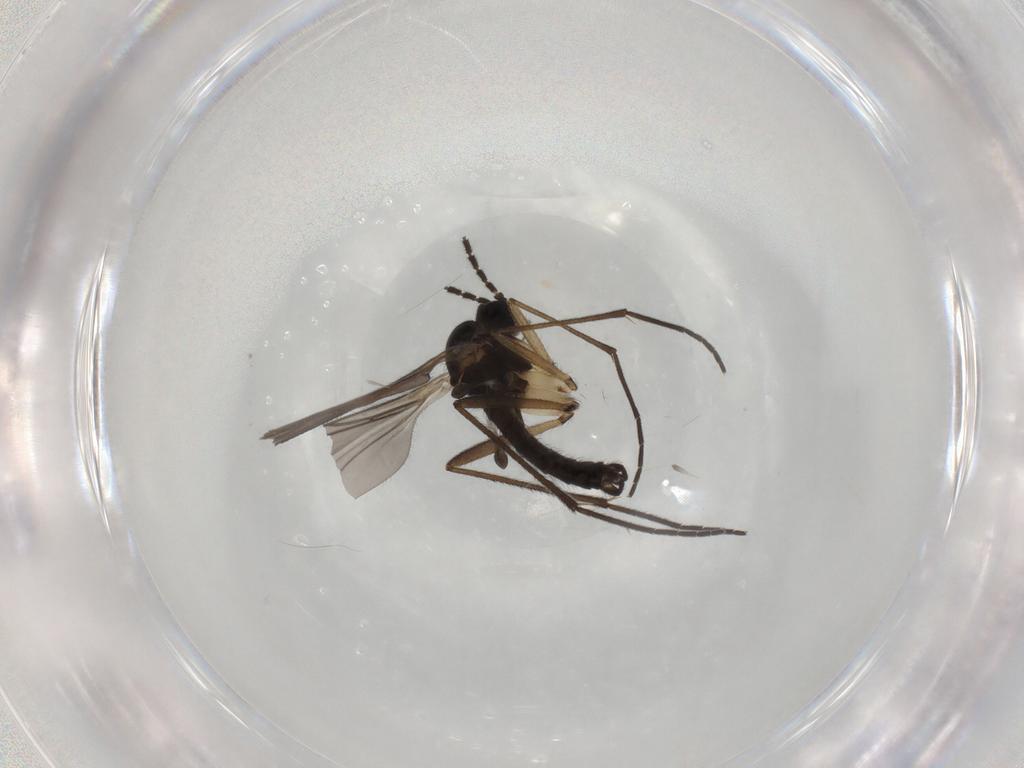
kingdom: Animalia
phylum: Arthropoda
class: Insecta
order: Diptera
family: Sciaridae
